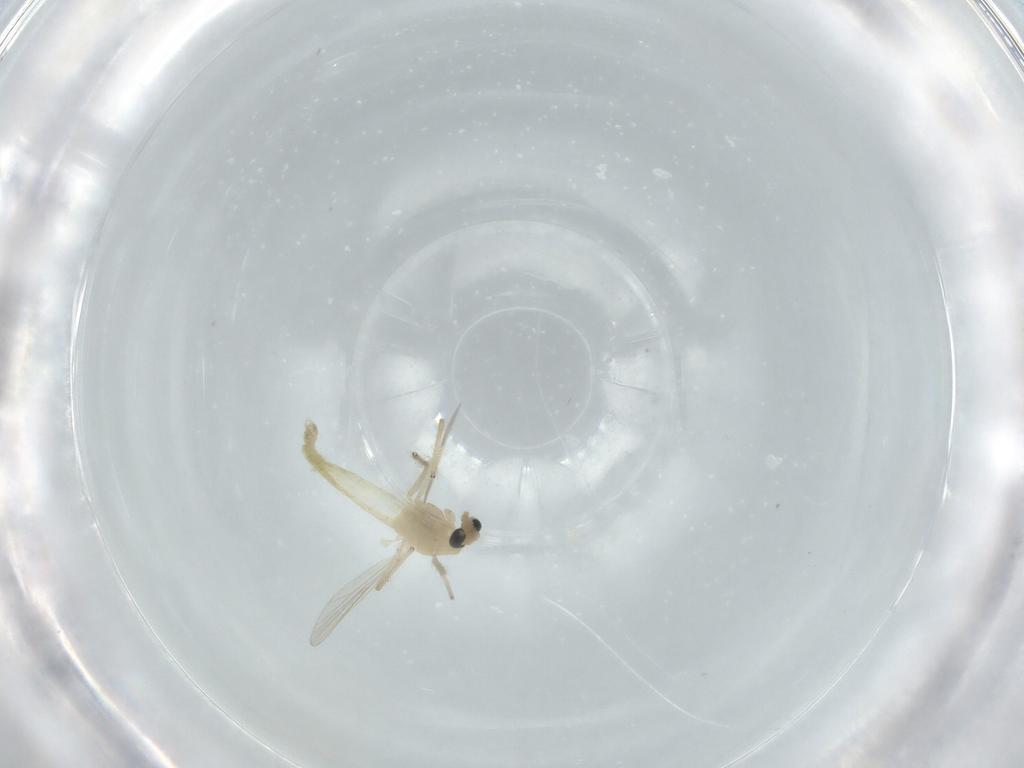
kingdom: Animalia
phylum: Arthropoda
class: Insecta
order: Diptera
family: Chironomidae
